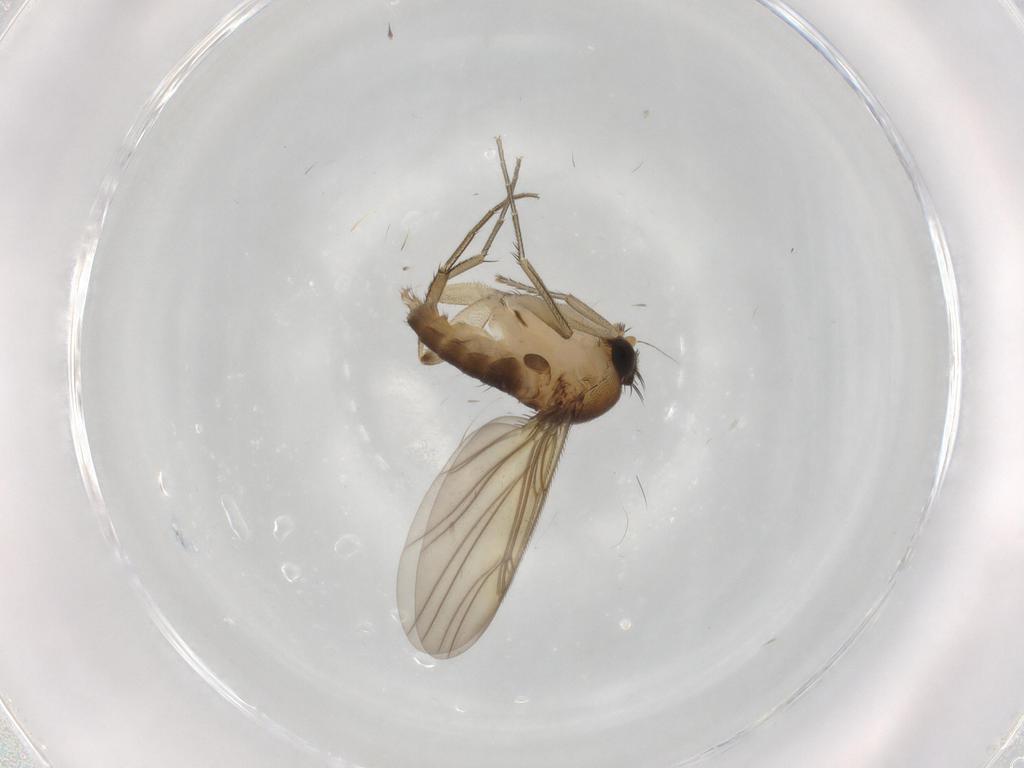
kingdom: Animalia
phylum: Arthropoda
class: Insecta
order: Diptera
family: Phoridae
